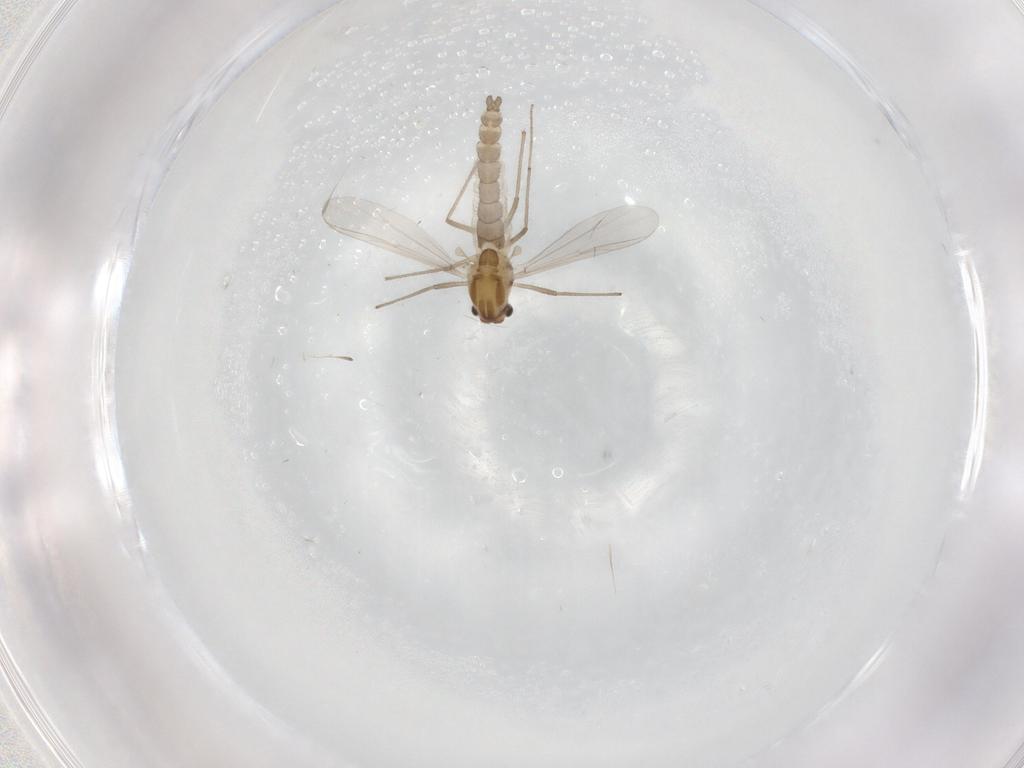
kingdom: Animalia
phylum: Arthropoda
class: Insecta
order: Diptera
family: Chironomidae
